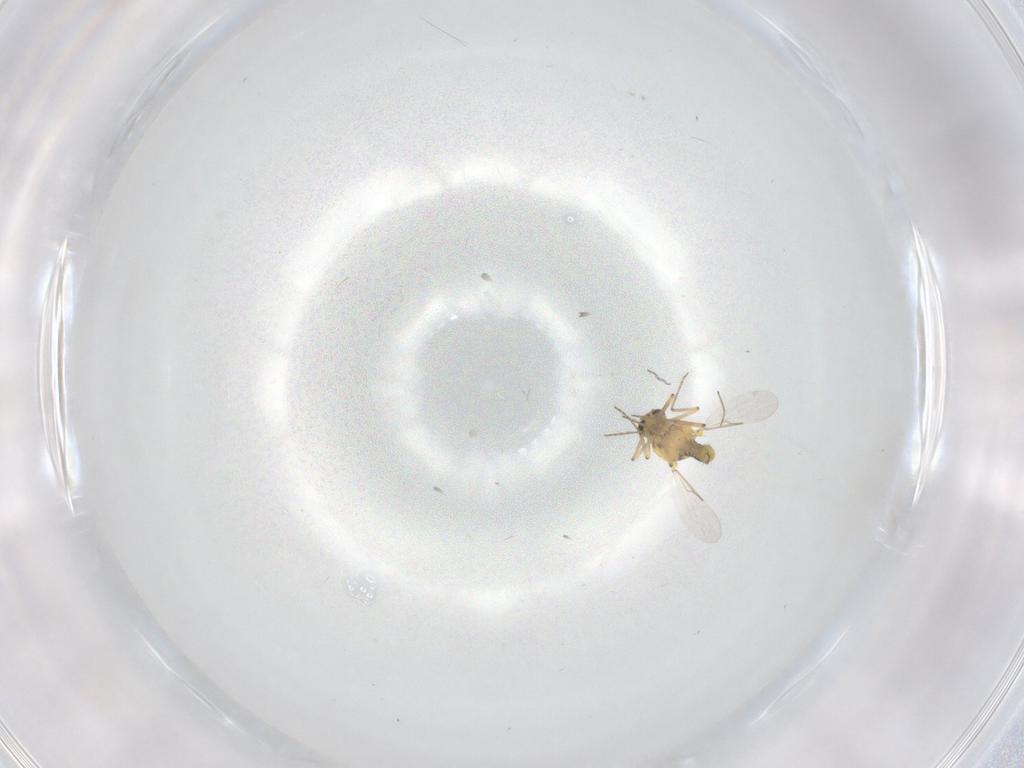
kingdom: Animalia
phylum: Arthropoda
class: Insecta
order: Diptera
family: Ceratopogonidae
